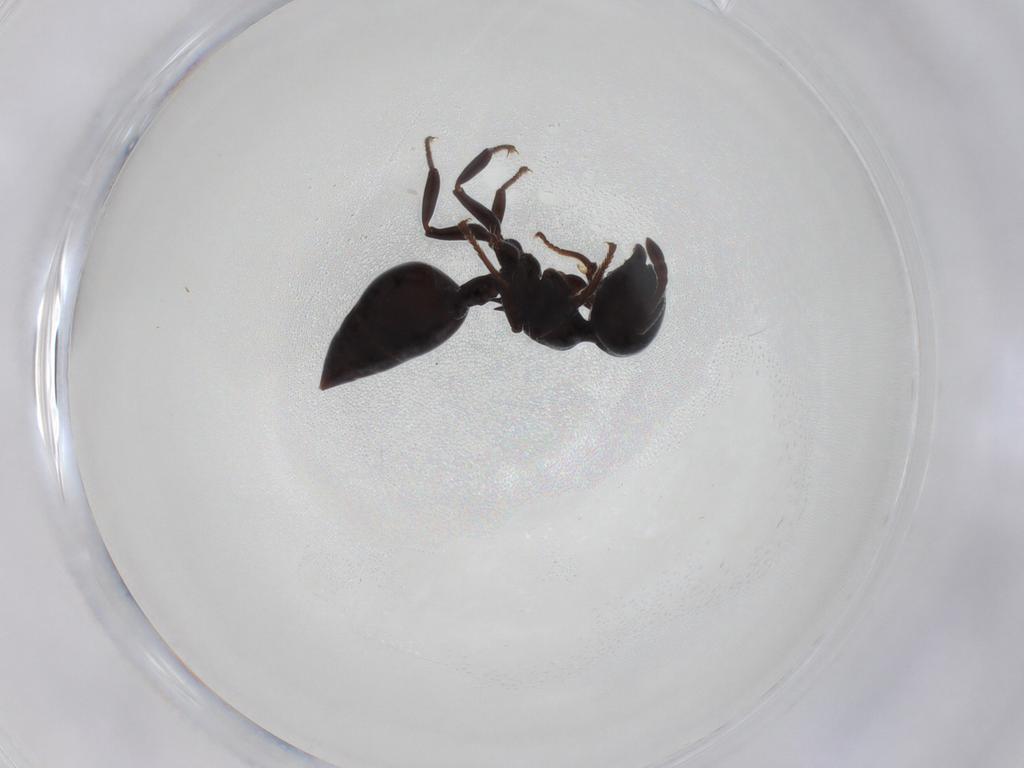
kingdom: Animalia
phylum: Arthropoda
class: Insecta
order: Hymenoptera
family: Formicidae
